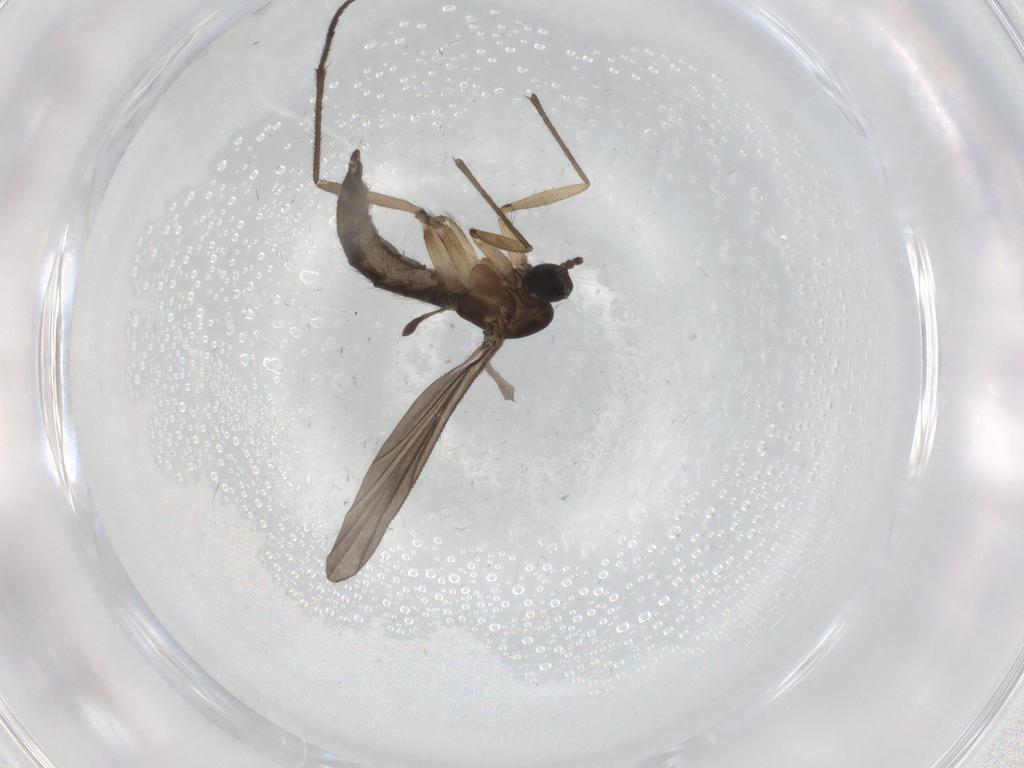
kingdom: Animalia
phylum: Arthropoda
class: Insecta
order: Diptera
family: Sciaridae
